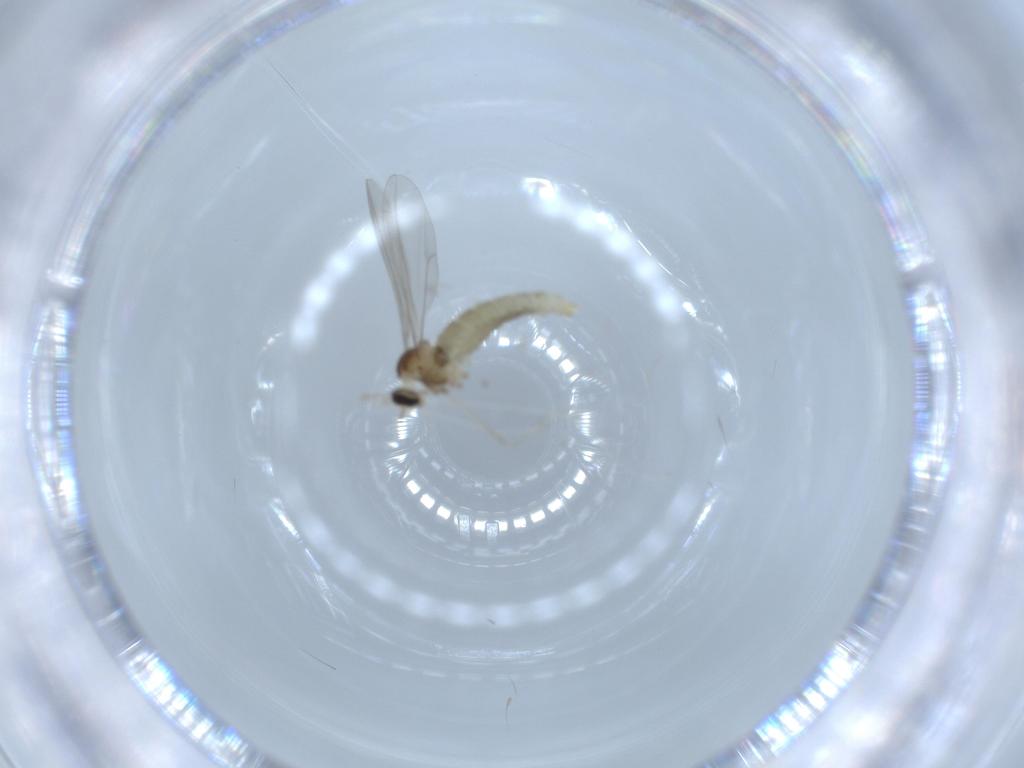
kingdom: Animalia
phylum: Arthropoda
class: Insecta
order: Diptera
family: Cecidomyiidae
